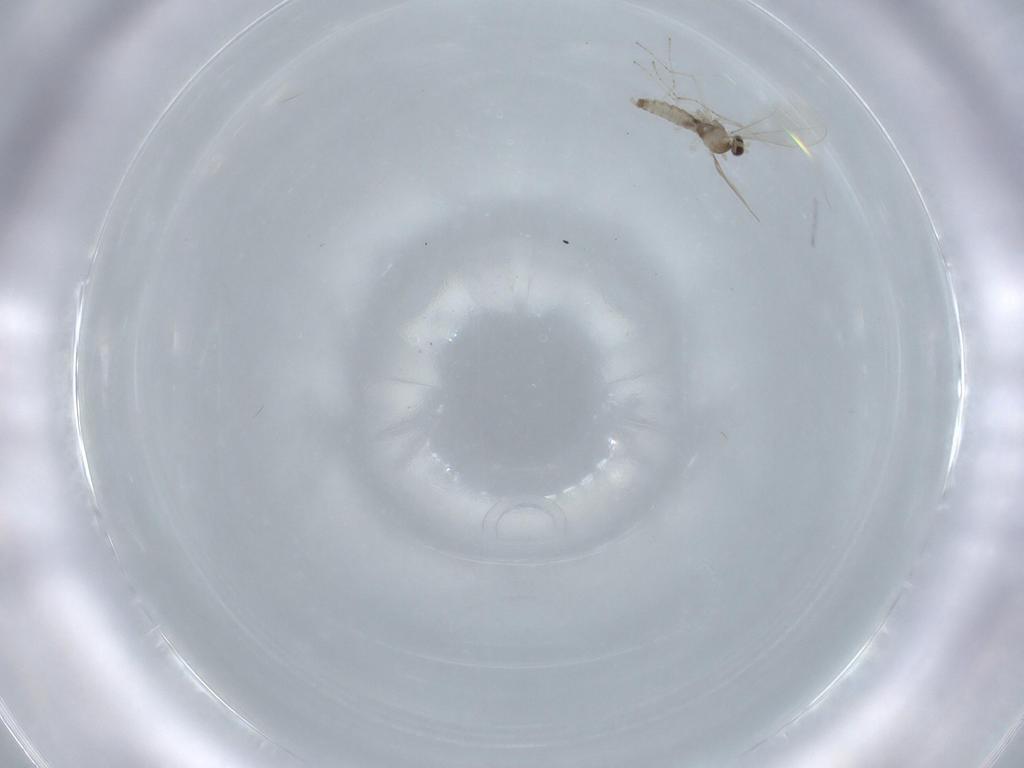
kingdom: Animalia
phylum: Arthropoda
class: Insecta
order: Diptera
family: Cecidomyiidae
